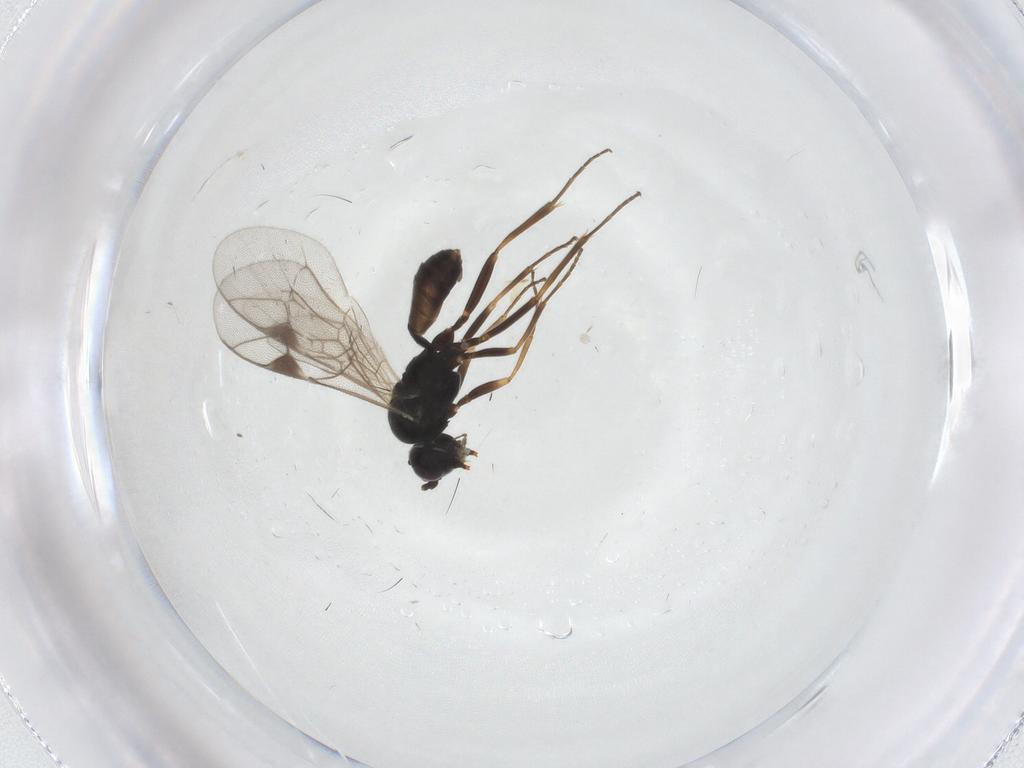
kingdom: Animalia
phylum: Arthropoda
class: Insecta
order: Hymenoptera
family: Ichneumonidae
